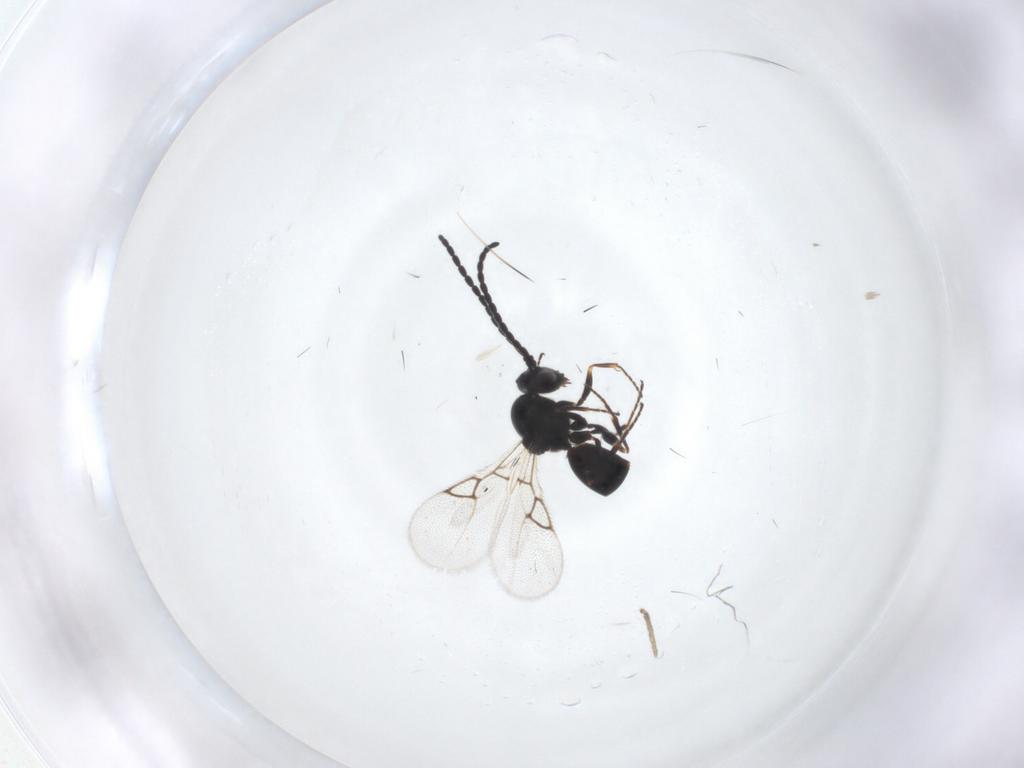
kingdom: Animalia
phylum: Arthropoda
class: Insecta
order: Hymenoptera
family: Figitidae
